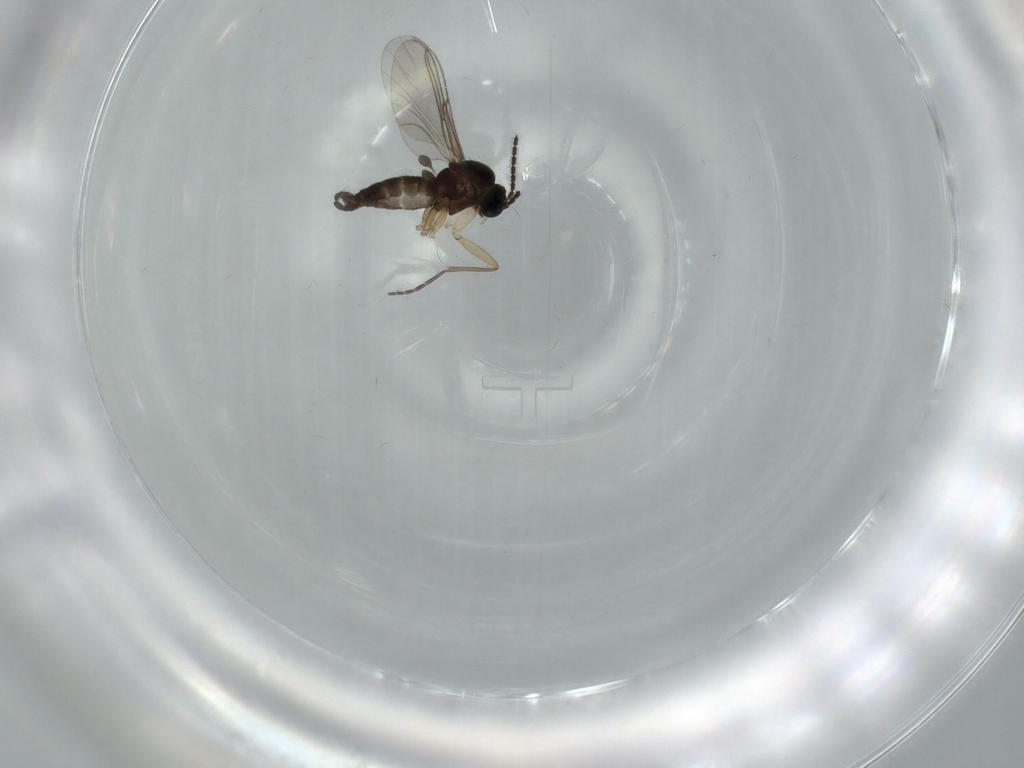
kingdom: Animalia
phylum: Arthropoda
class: Insecta
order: Diptera
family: Sciaridae
